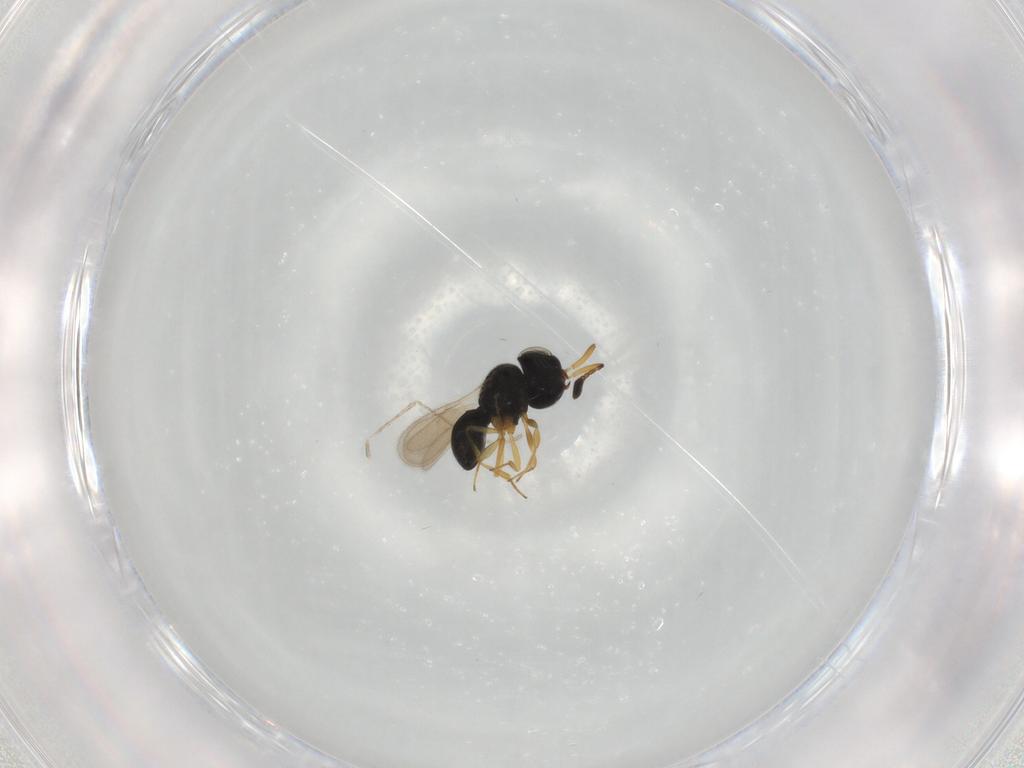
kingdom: Animalia
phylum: Arthropoda
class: Insecta
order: Hymenoptera
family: Scelionidae
